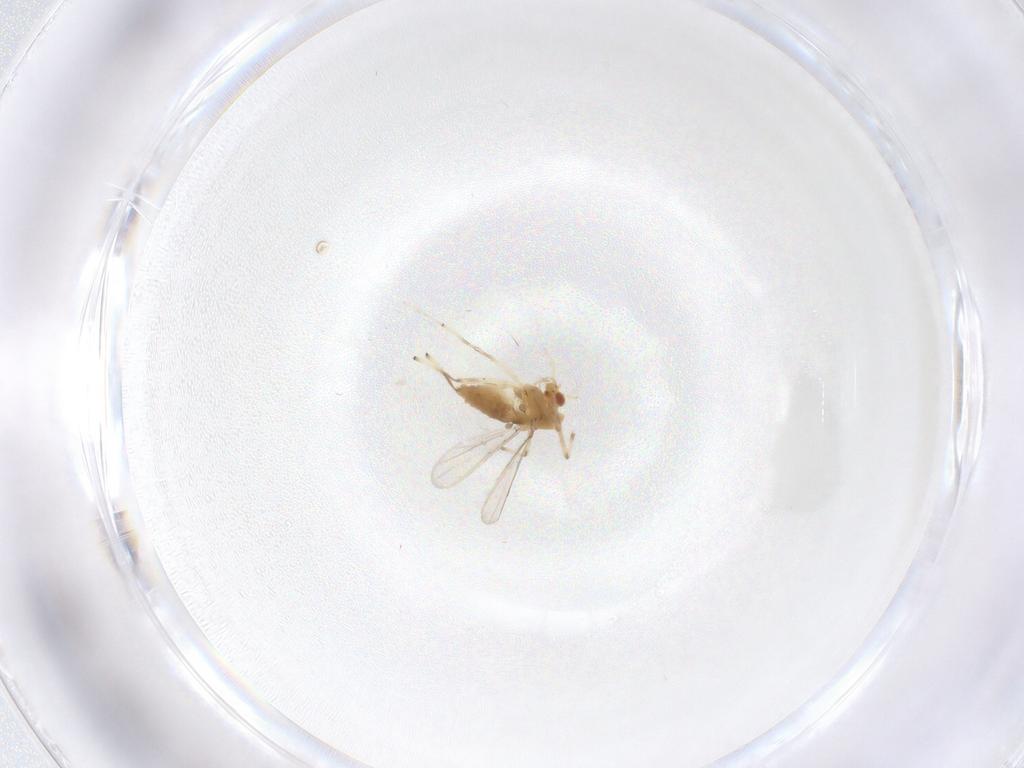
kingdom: Animalia
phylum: Arthropoda
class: Insecta
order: Diptera
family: Chironomidae
